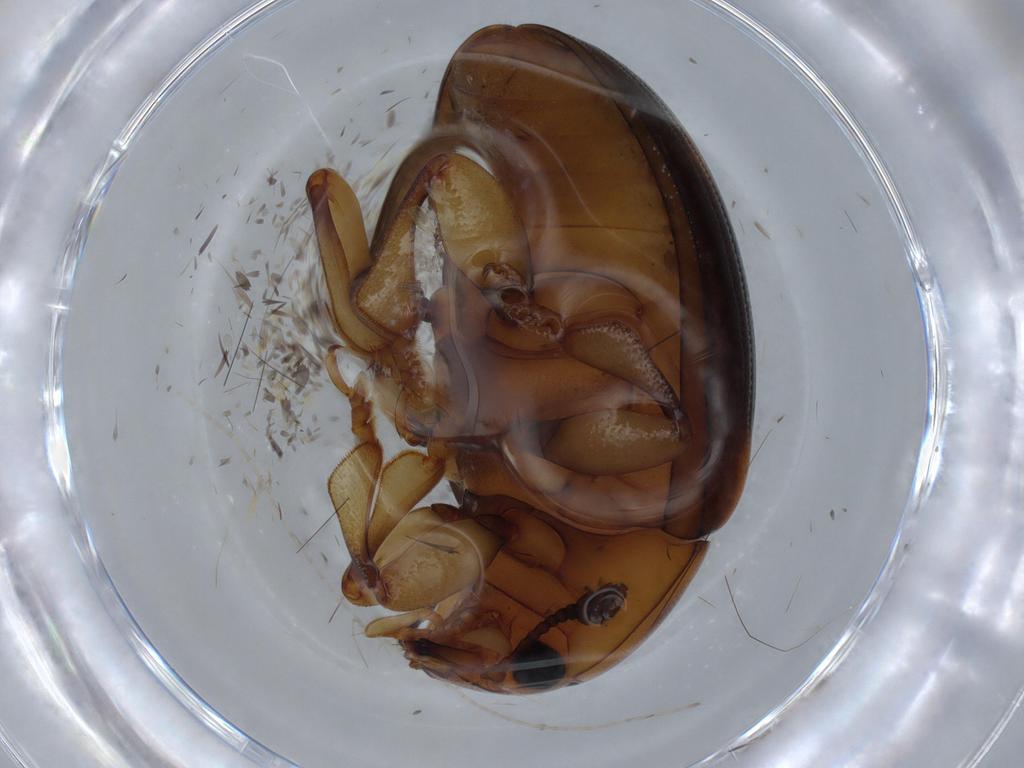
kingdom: Animalia
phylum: Arthropoda
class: Insecta
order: Coleoptera
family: Erotylidae
